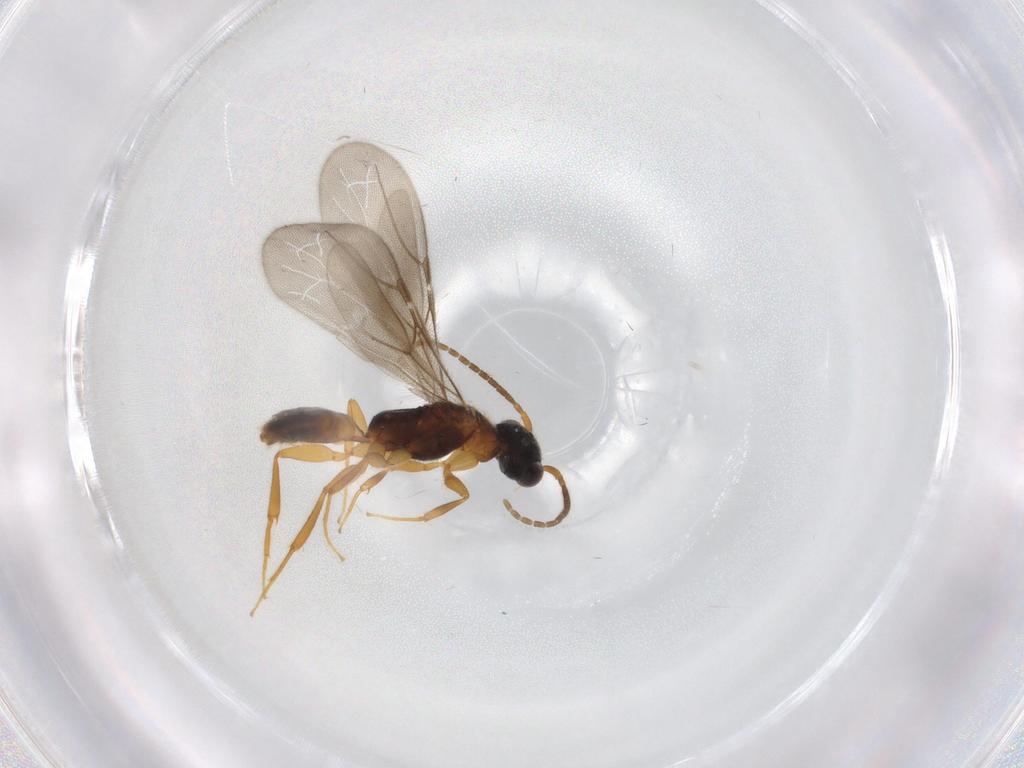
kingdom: Animalia
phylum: Arthropoda
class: Insecta
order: Hymenoptera
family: Bethylidae
